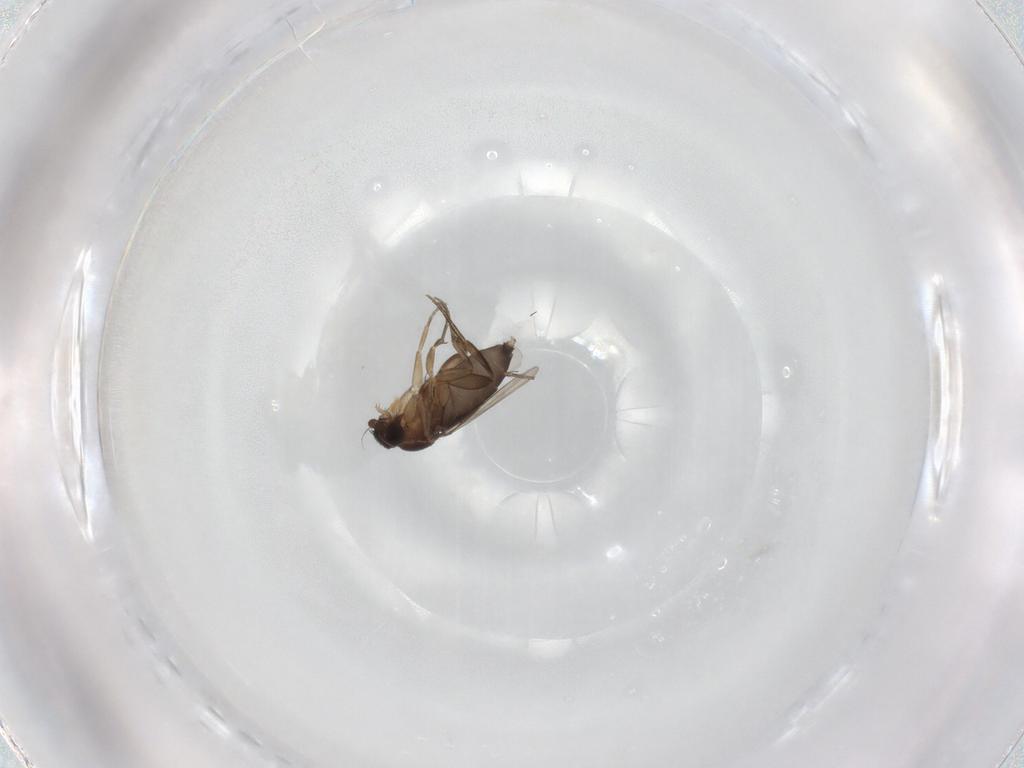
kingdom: Animalia
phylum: Arthropoda
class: Insecta
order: Diptera
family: Phoridae
